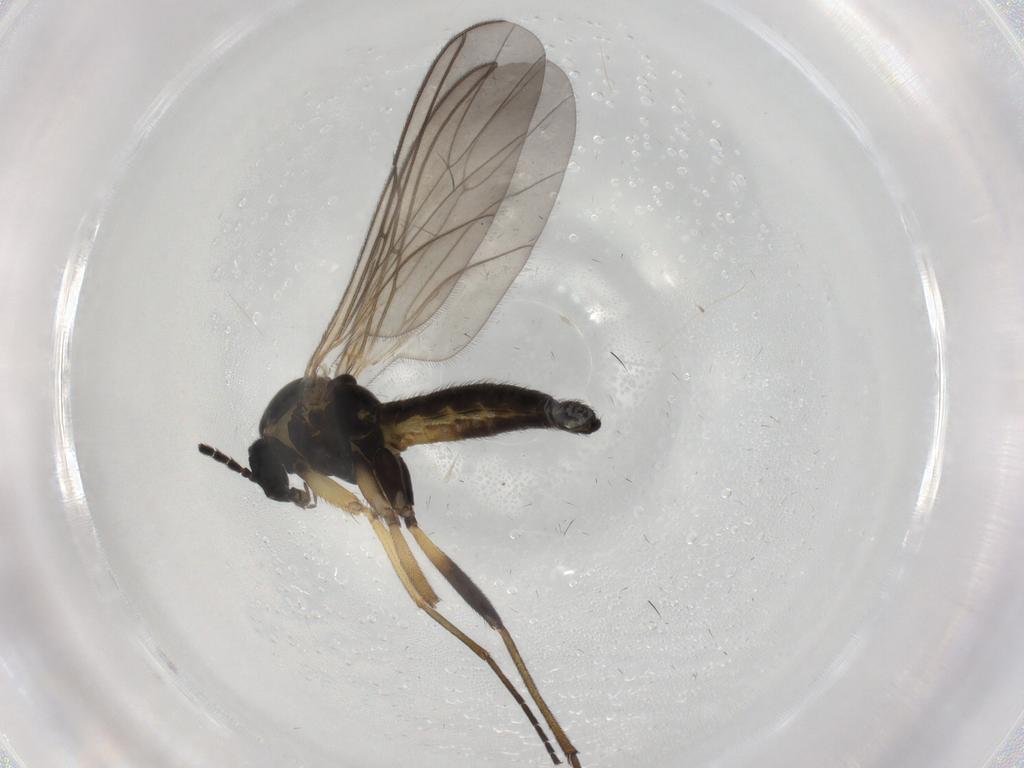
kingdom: Animalia
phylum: Arthropoda
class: Insecta
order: Diptera
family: Sciaridae
